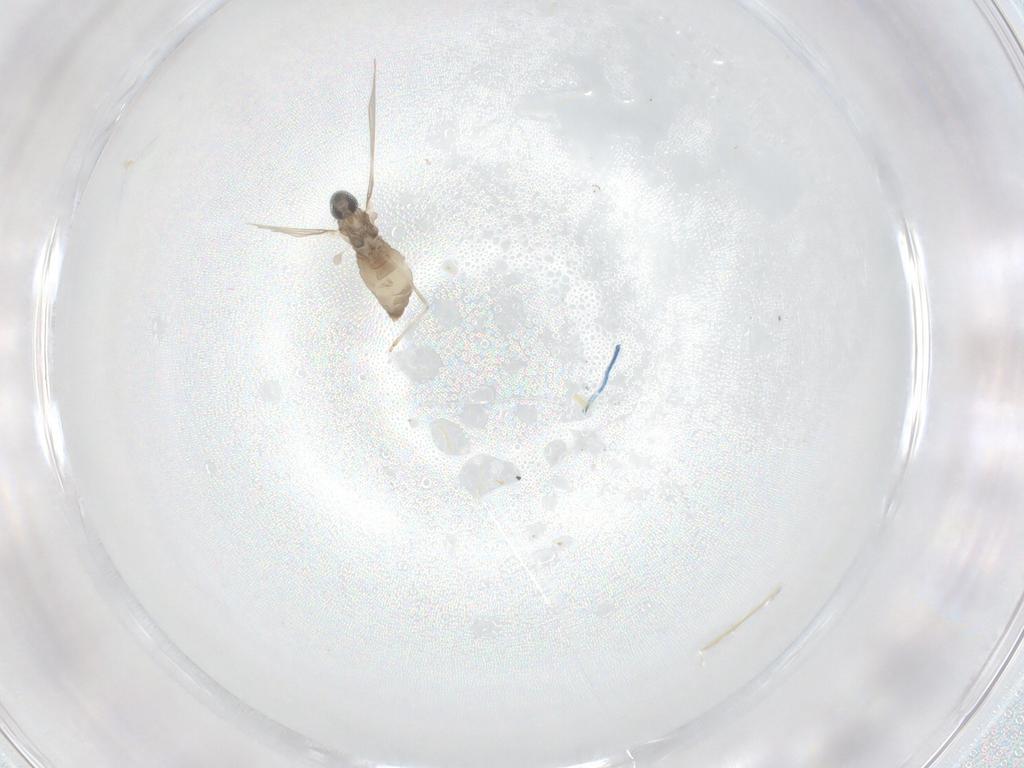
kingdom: Animalia
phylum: Arthropoda
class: Insecta
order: Diptera
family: Cecidomyiidae
